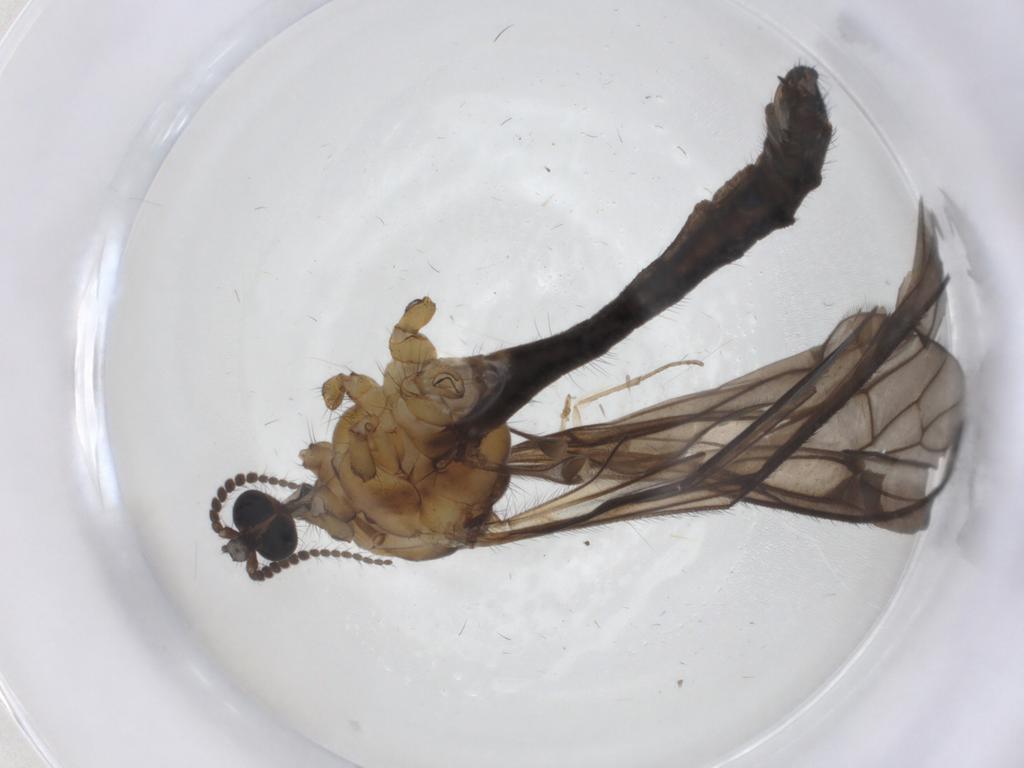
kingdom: Animalia
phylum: Arthropoda
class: Insecta
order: Diptera
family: Limoniidae
